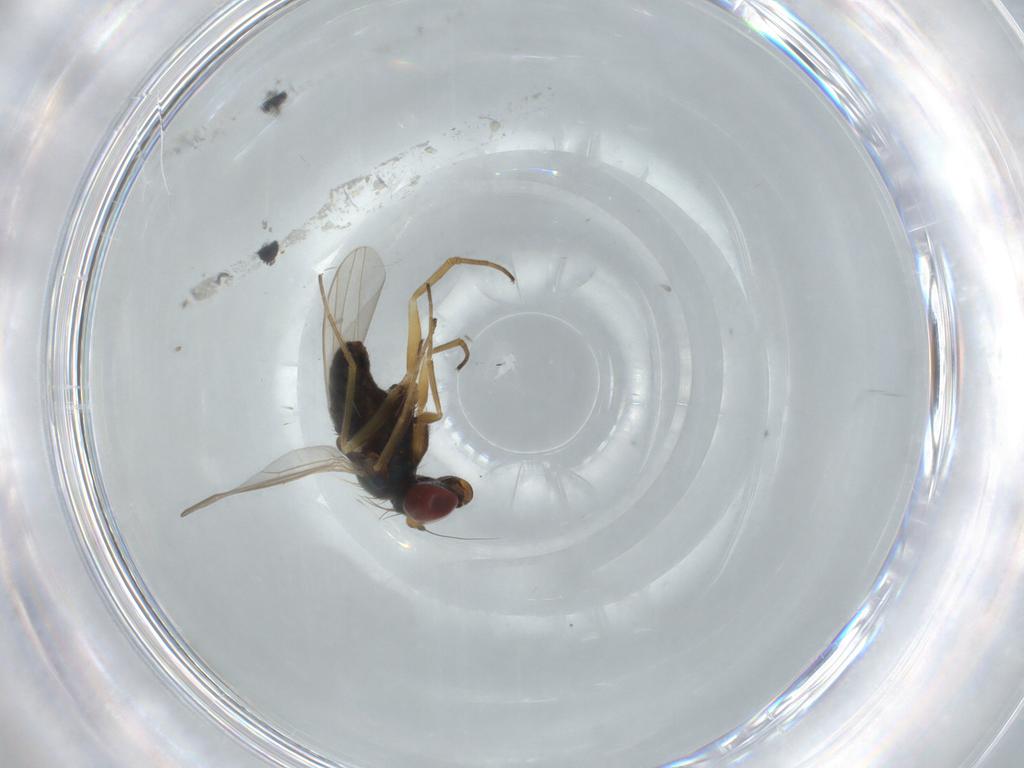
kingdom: Animalia
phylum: Arthropoda
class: Insecta
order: Diptera
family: Dolichopodidae
